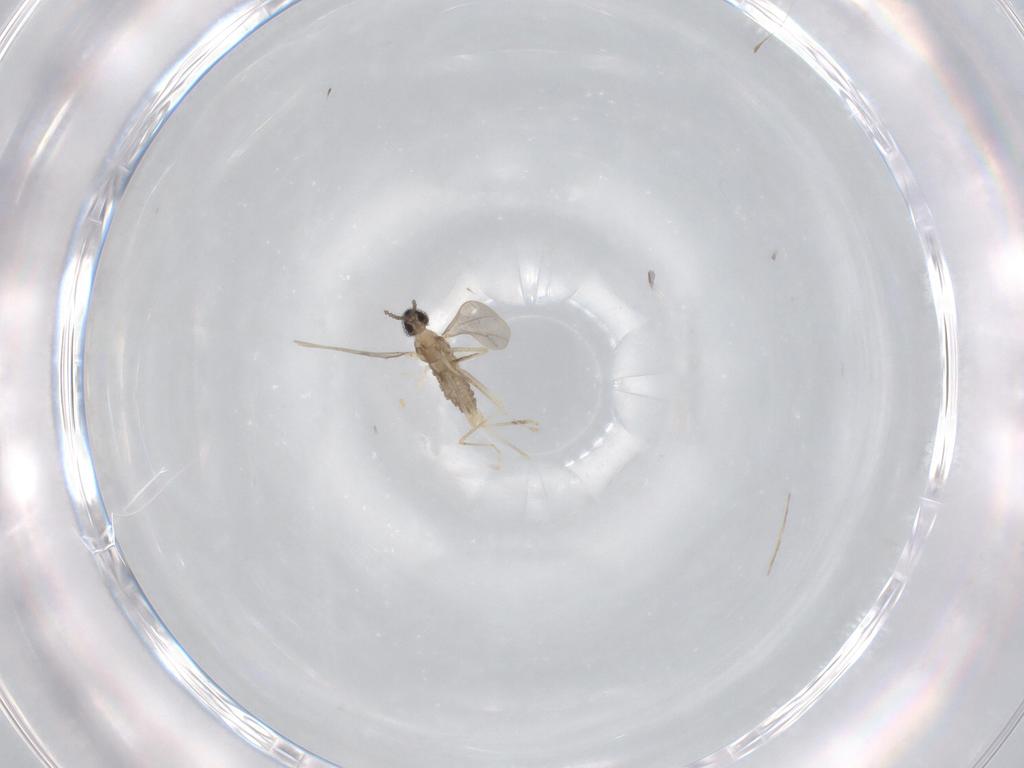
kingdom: Animalia
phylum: Arthropoda
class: Insecta
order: Diptera
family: Cecidomyiidae
